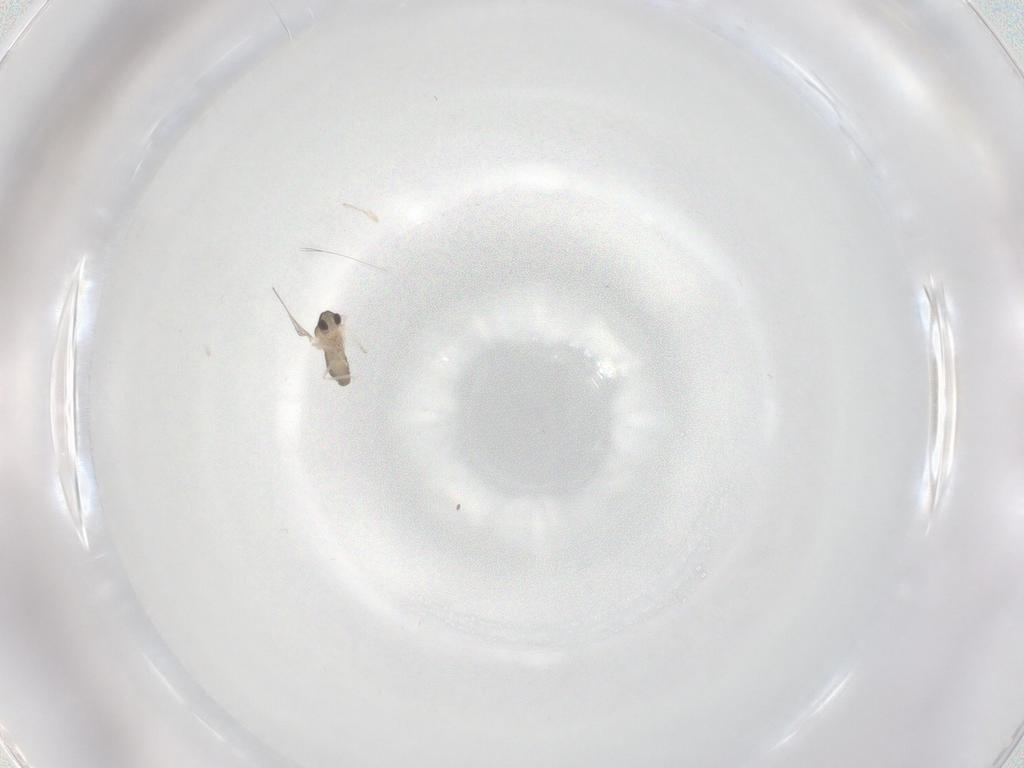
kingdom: Animalia
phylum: Arthropoda
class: Insecta
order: Diptera
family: Cecidomyiidae
